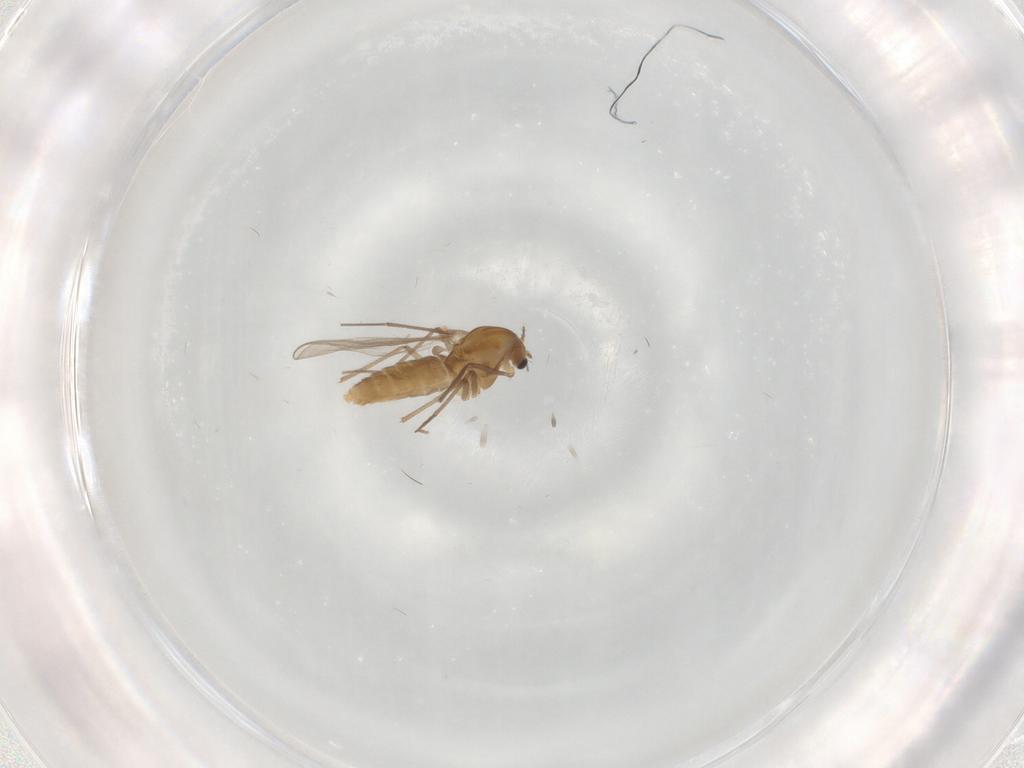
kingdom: Animalia
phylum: Arthropoda
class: Insecta
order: Diptera
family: Chironomidae
